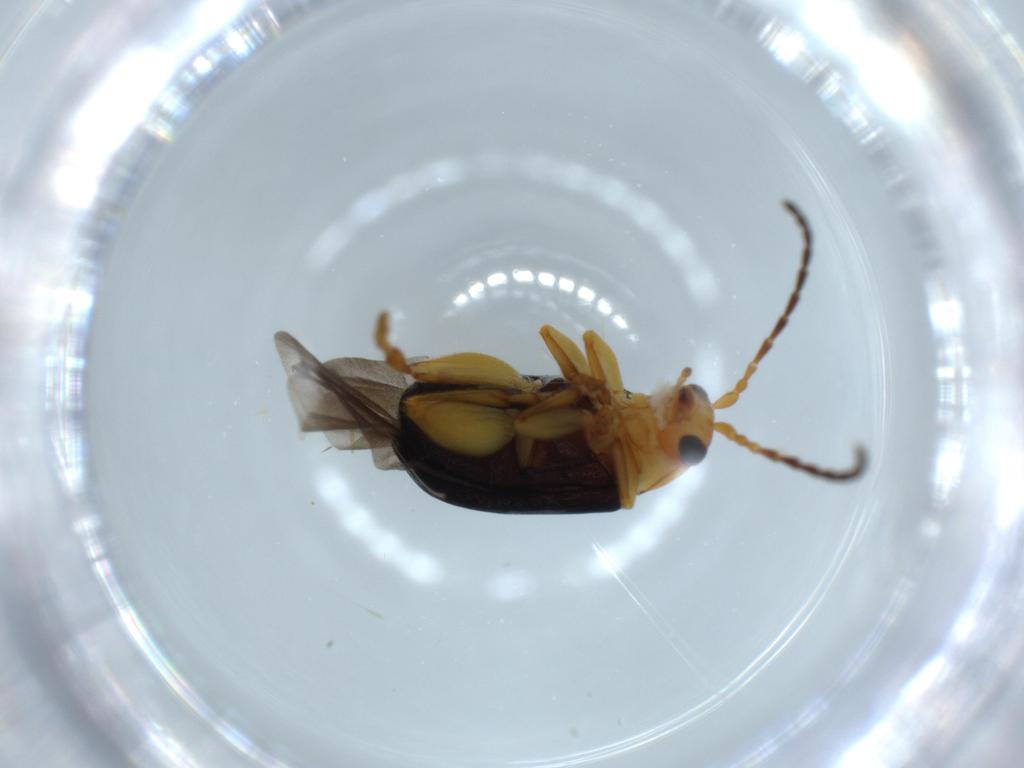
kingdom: Animalia
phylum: Arthropoda
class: Insecta
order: Coleoptera
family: Chrysomelidae
